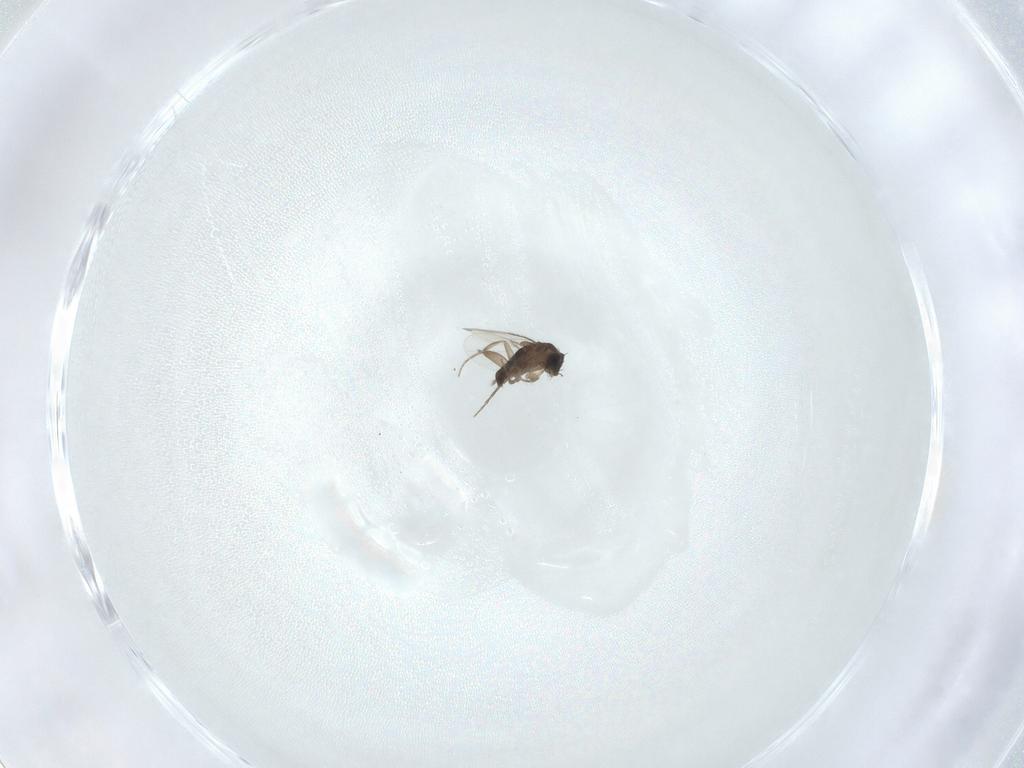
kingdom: Animalia
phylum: Arthropoda
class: Insecta
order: Diptera
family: Phoridae
